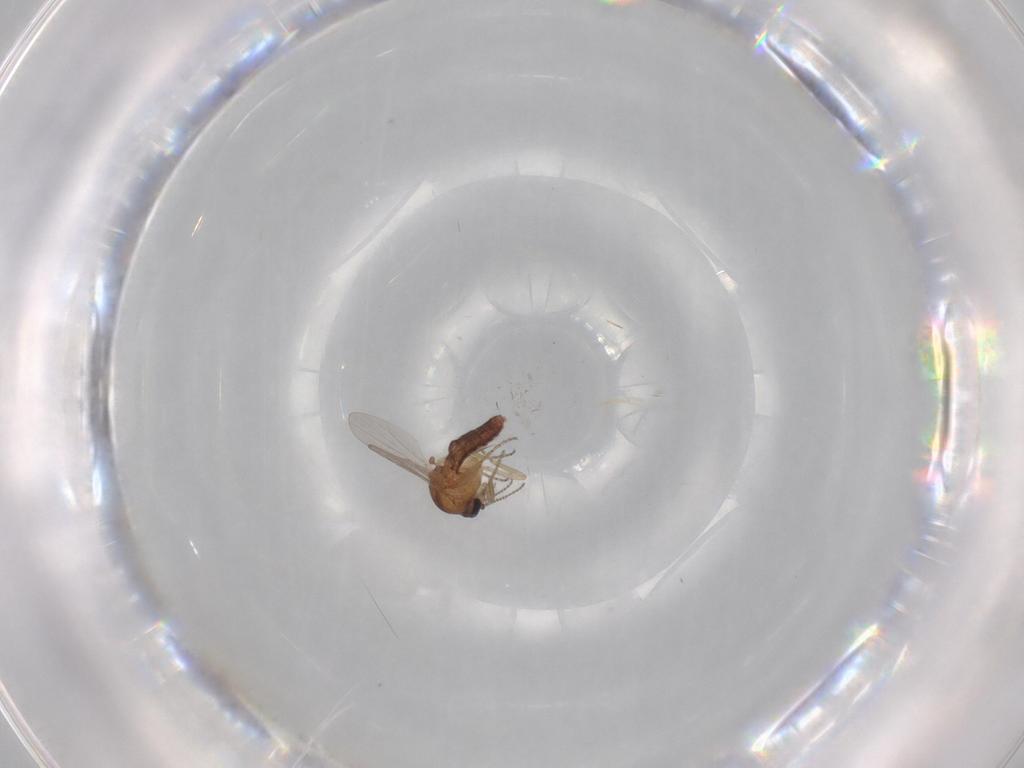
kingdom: Animalia
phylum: Arthropoda
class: Insecta
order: Diptera
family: Ceratopogonidae
